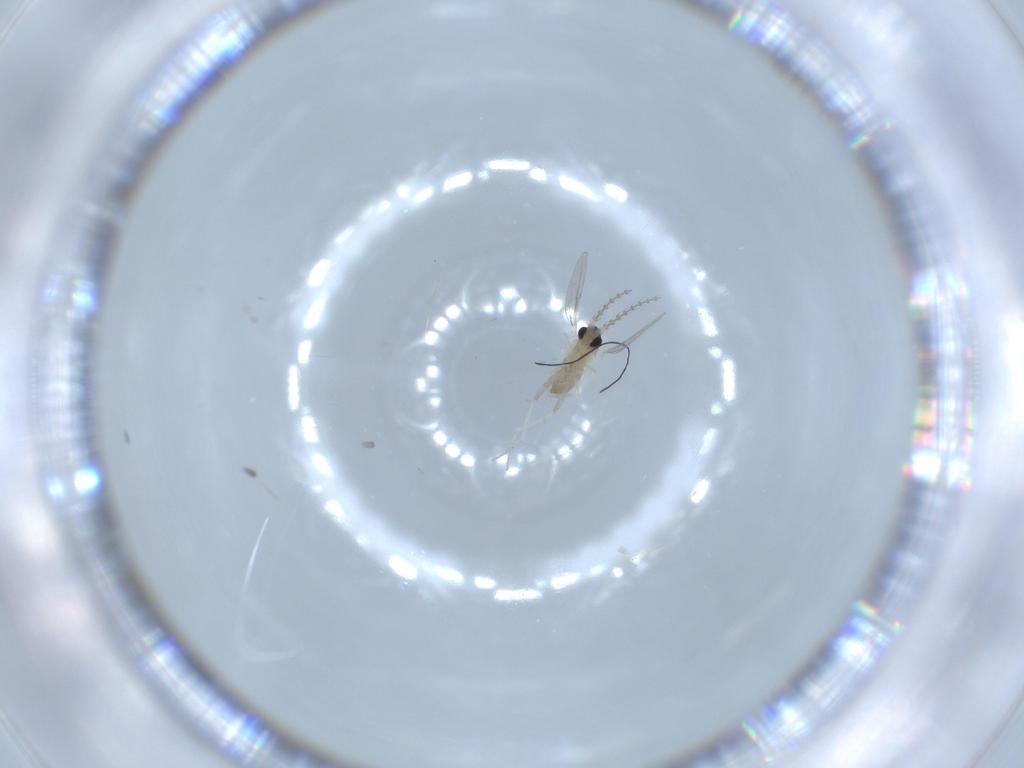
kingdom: Animalia
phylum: Arthropoda
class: Insecta
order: Diptera
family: Cecidomyiidae
